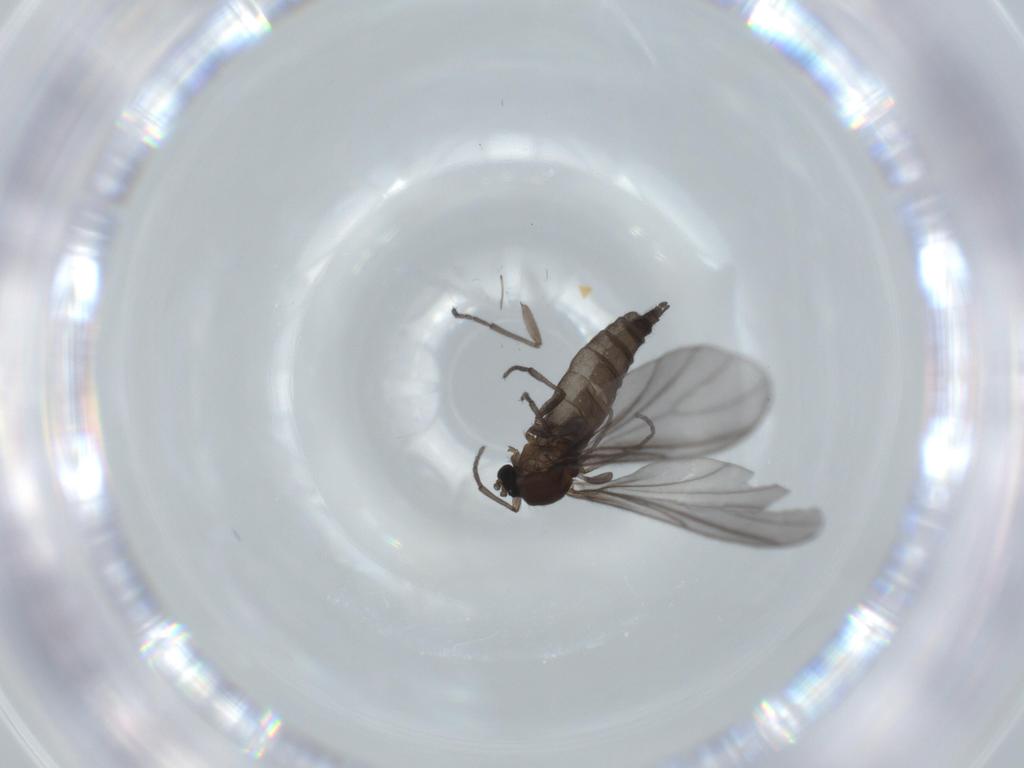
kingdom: Animalia
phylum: Arthropoda
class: Insecta
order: Diptera
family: Sciaridae
